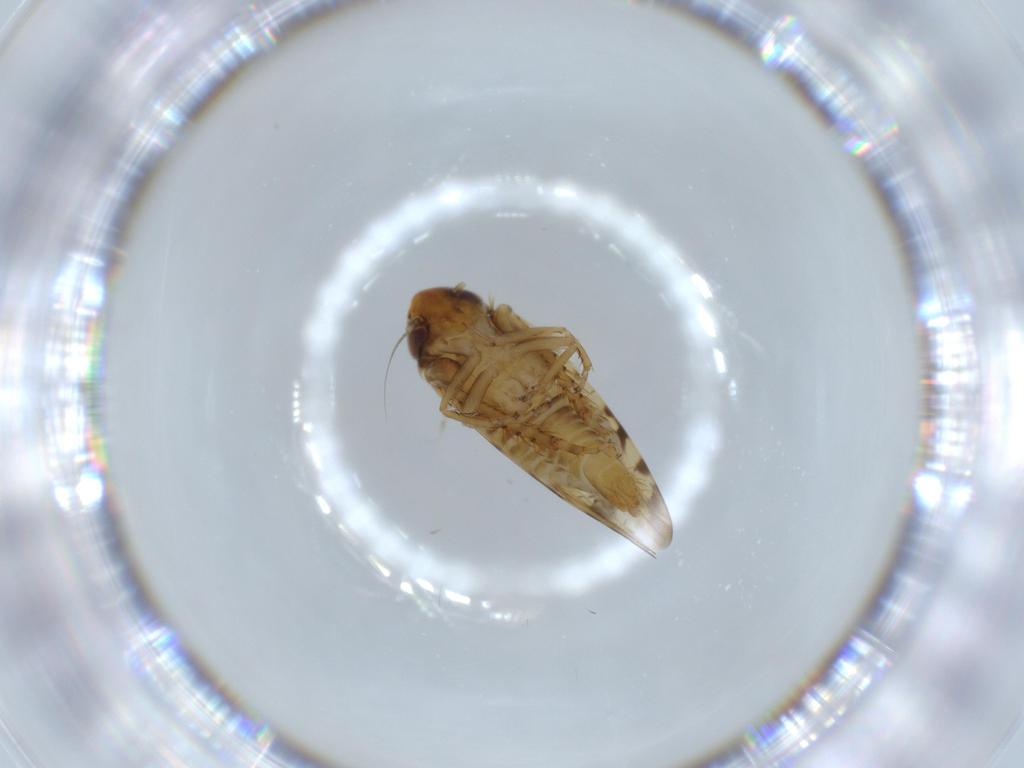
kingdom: Animalia
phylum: Arthropoda
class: Insecta
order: Hemiptera
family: Cicadellidae
